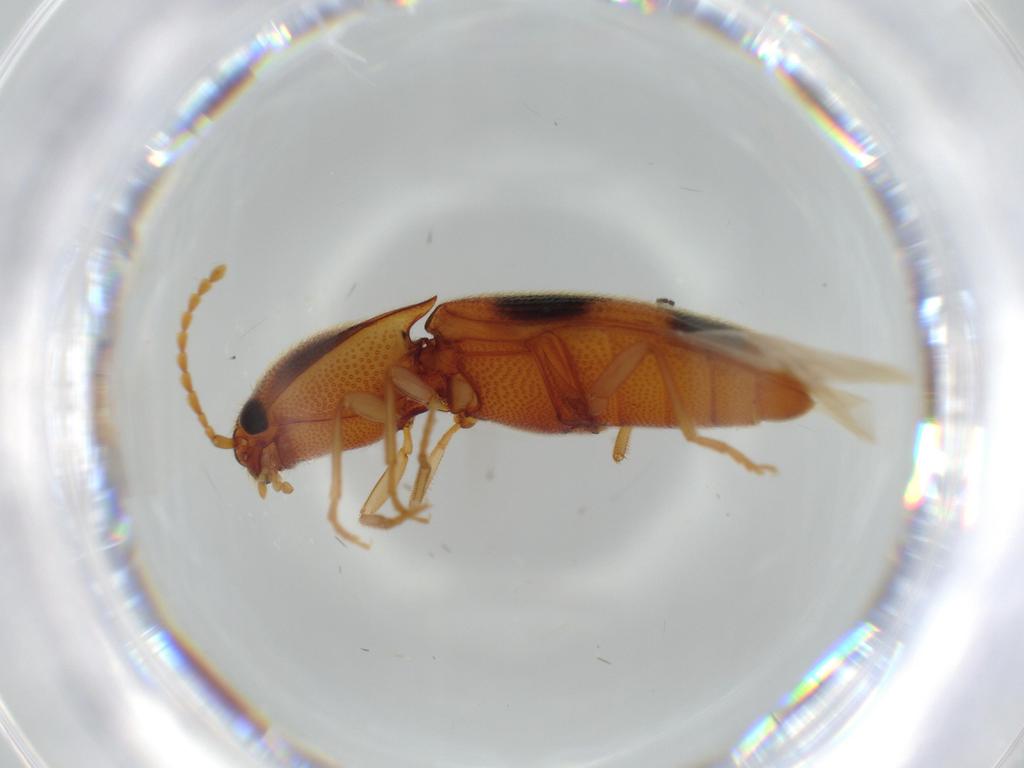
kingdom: Animalia
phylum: Arthropoda
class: Insecta
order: Coleoptera
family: Elateridae
